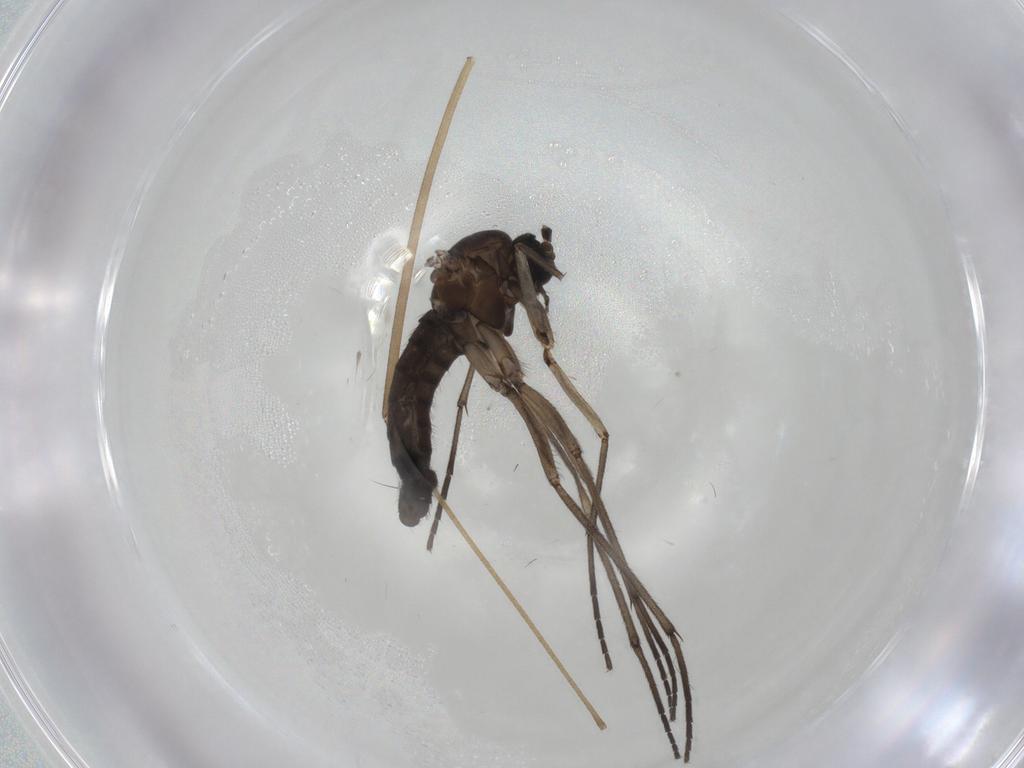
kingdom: Animalia
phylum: Arthropoda
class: Insecta
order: Diptera
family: Sciaridae
